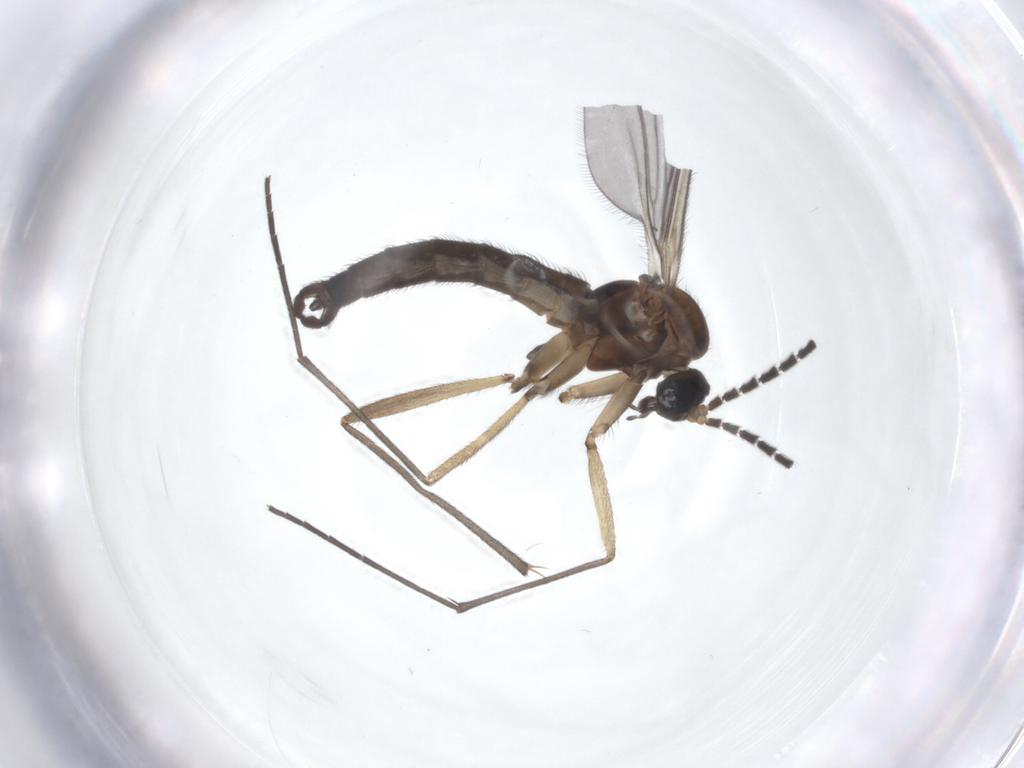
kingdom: Animalia
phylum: Arthropoda
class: Insecta
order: Diptera
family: Sciaridae
